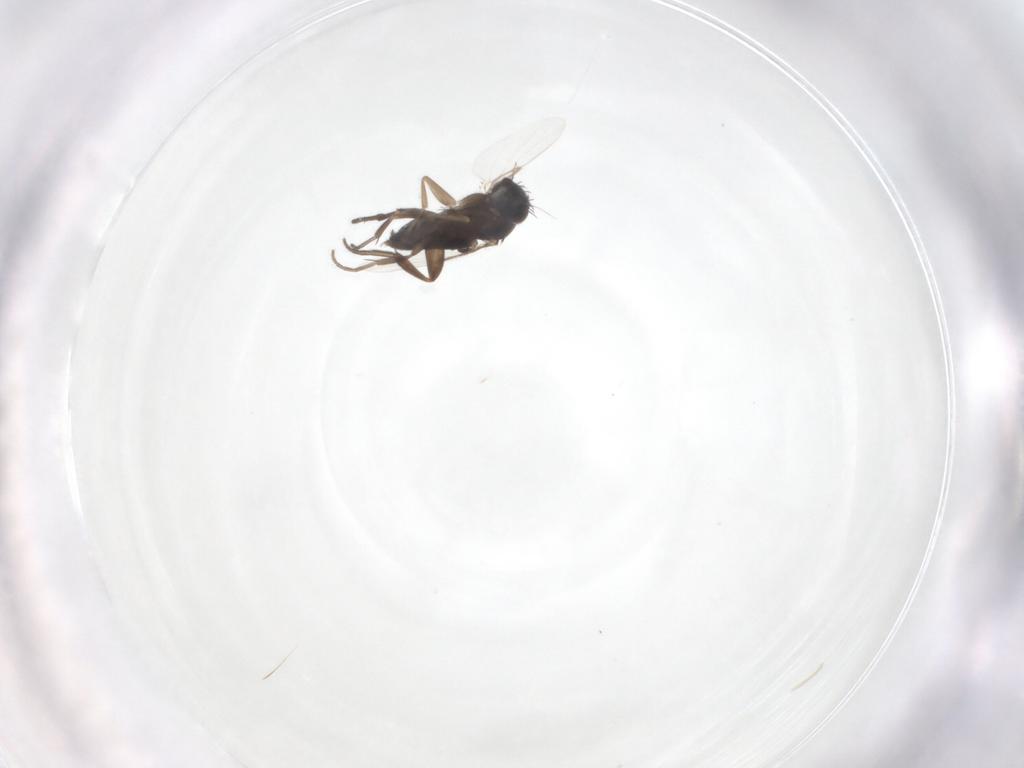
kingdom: Animalia
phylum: Arthropoda
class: Insecta
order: Diptera
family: Phoridae
